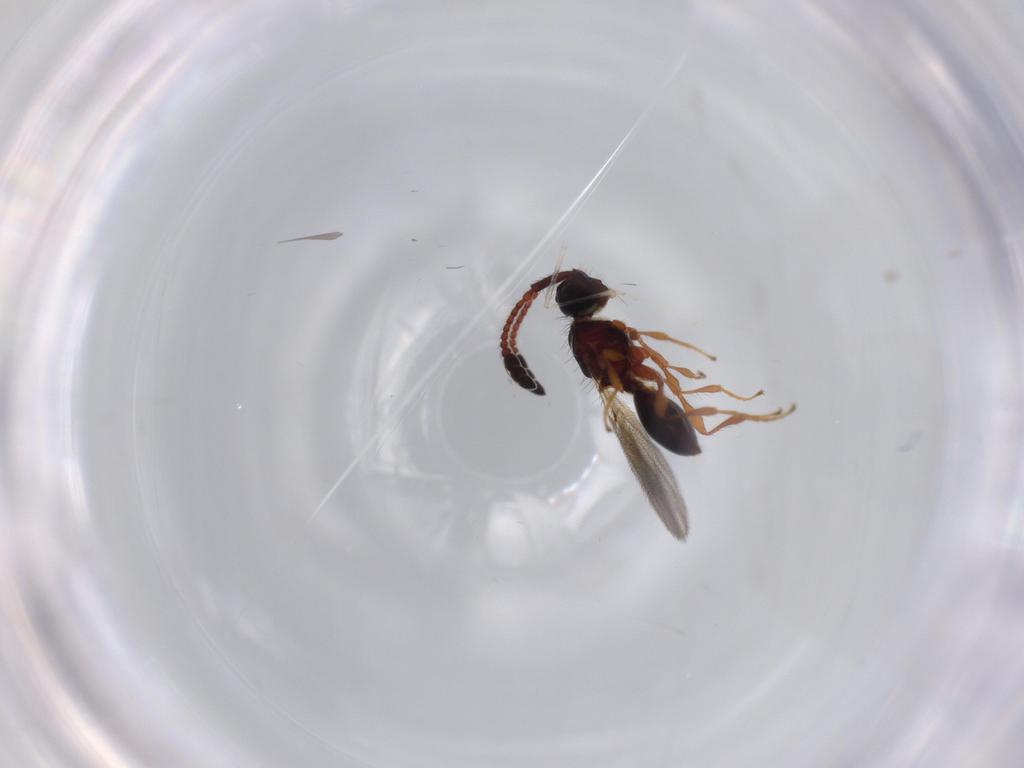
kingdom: Animalia
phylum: Arthropoda
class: Insecta
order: Hymenoptera
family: Diapriidae
